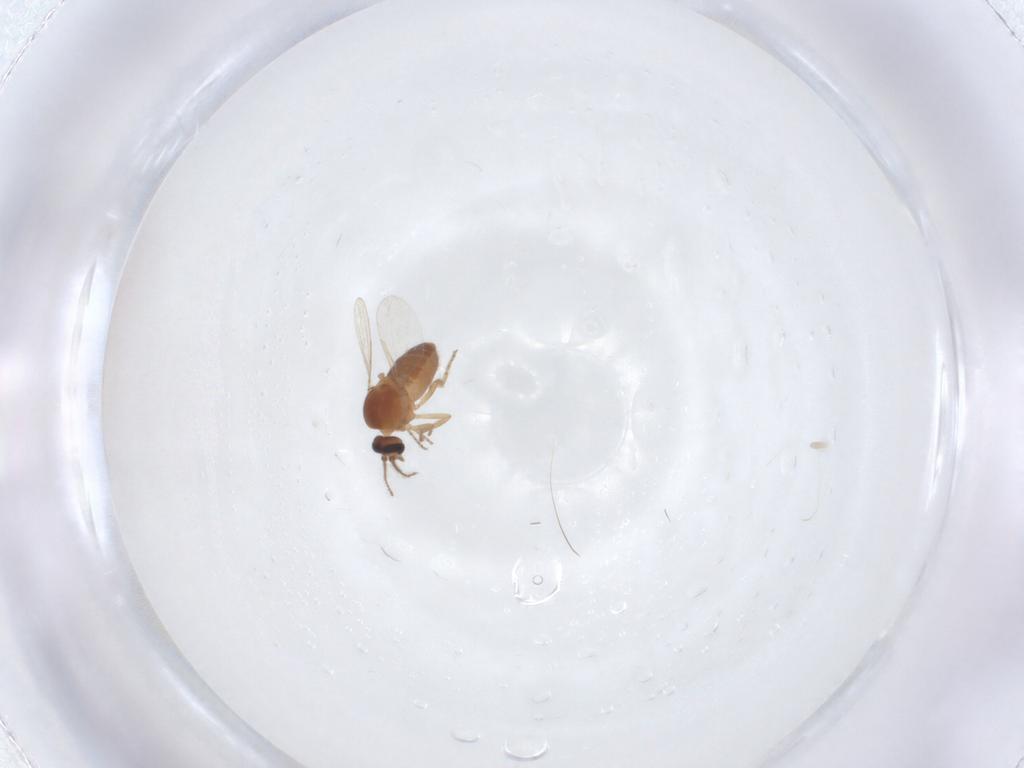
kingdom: Animalia
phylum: Arthropoda
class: Insecta
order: Diptera
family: Ceratopogonidae
